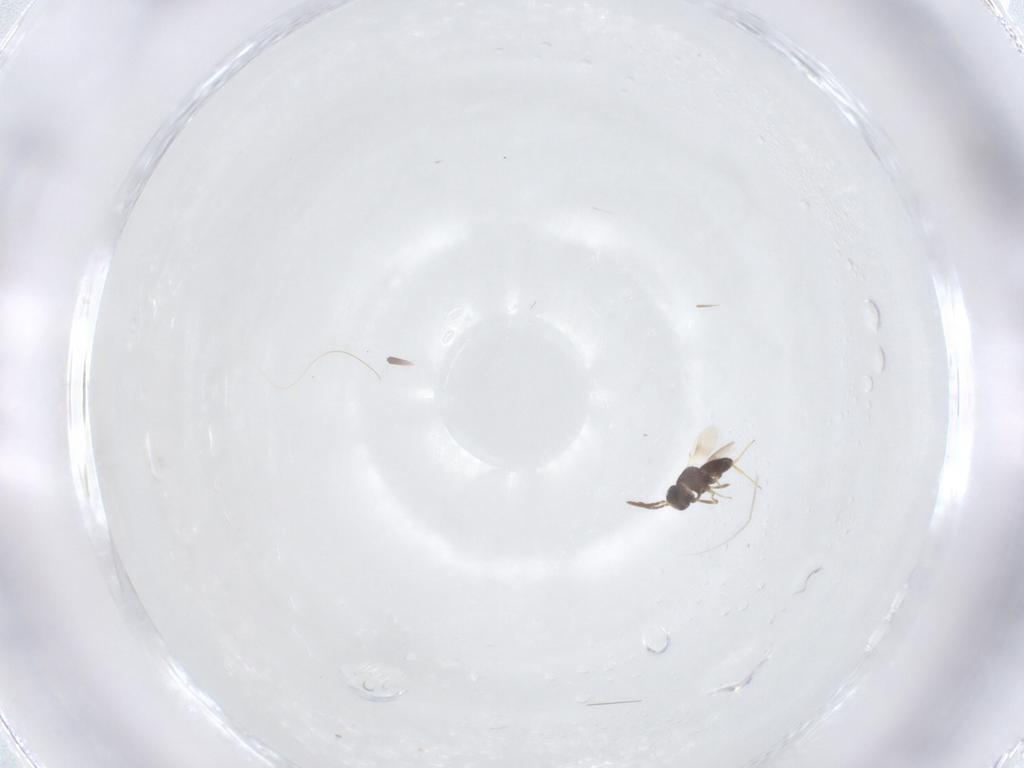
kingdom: Animalia
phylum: Arthropoda
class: Insecta
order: Hymenoptera
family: Scelionidae
